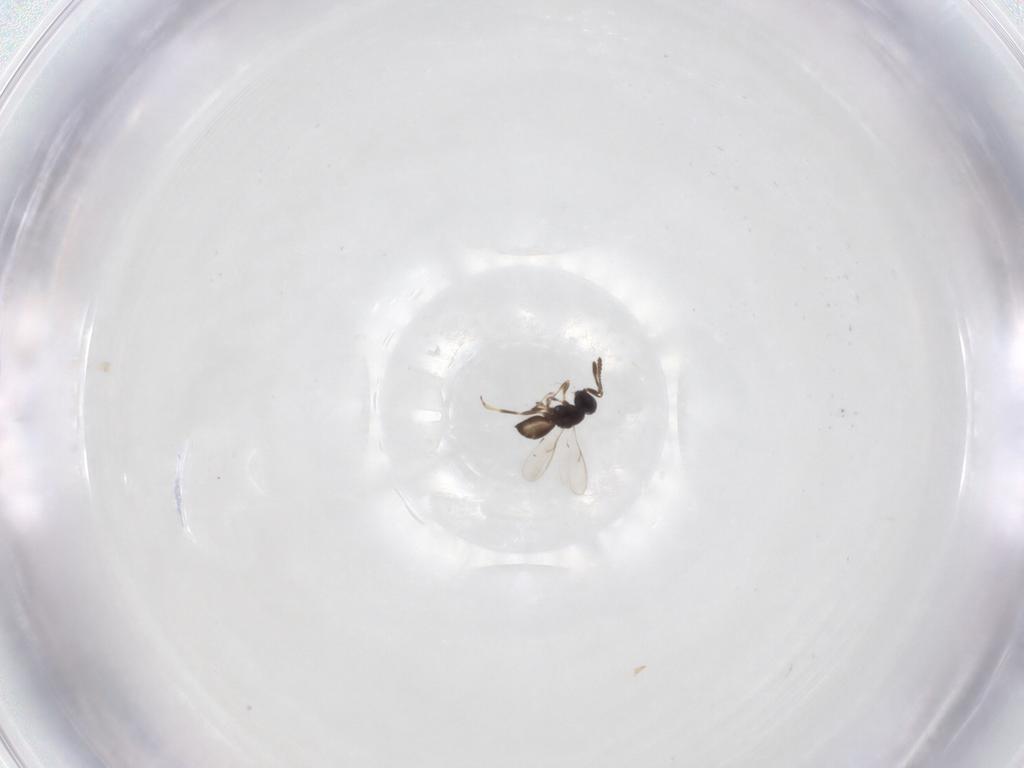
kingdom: Animalia
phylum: Arthropoda
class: Insecta
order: Hymenoptera
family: Scelionidae
